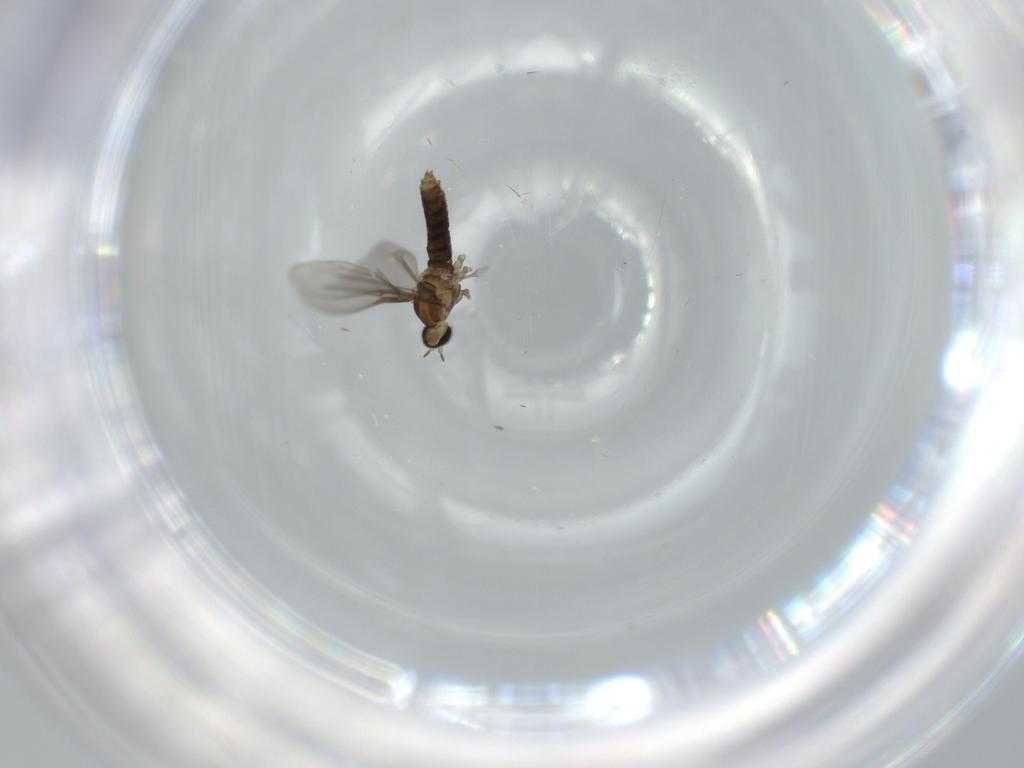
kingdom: Animalia
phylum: Arthropoda
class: Insecta
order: Diptera
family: Cecidomyiidae
